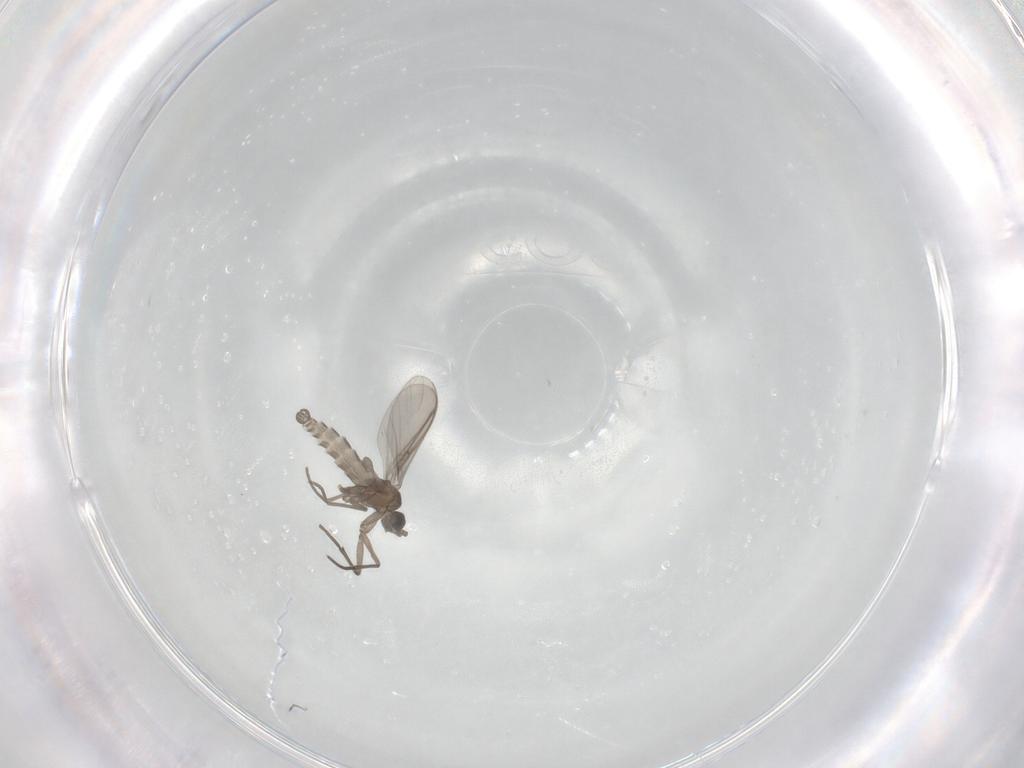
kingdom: Animalia
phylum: Arthropoda
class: Insecta
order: Diptera
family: Sciaridae
